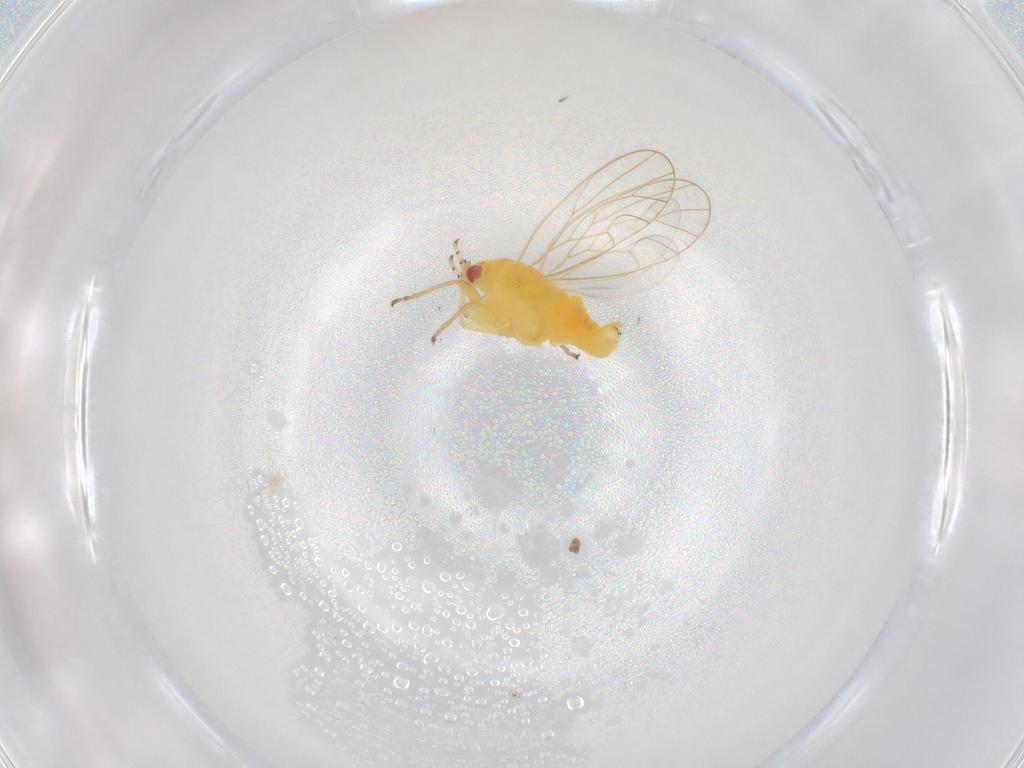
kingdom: Animalia
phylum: Arthropoda
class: Insecta
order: Hemiptera
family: Psyllidae
